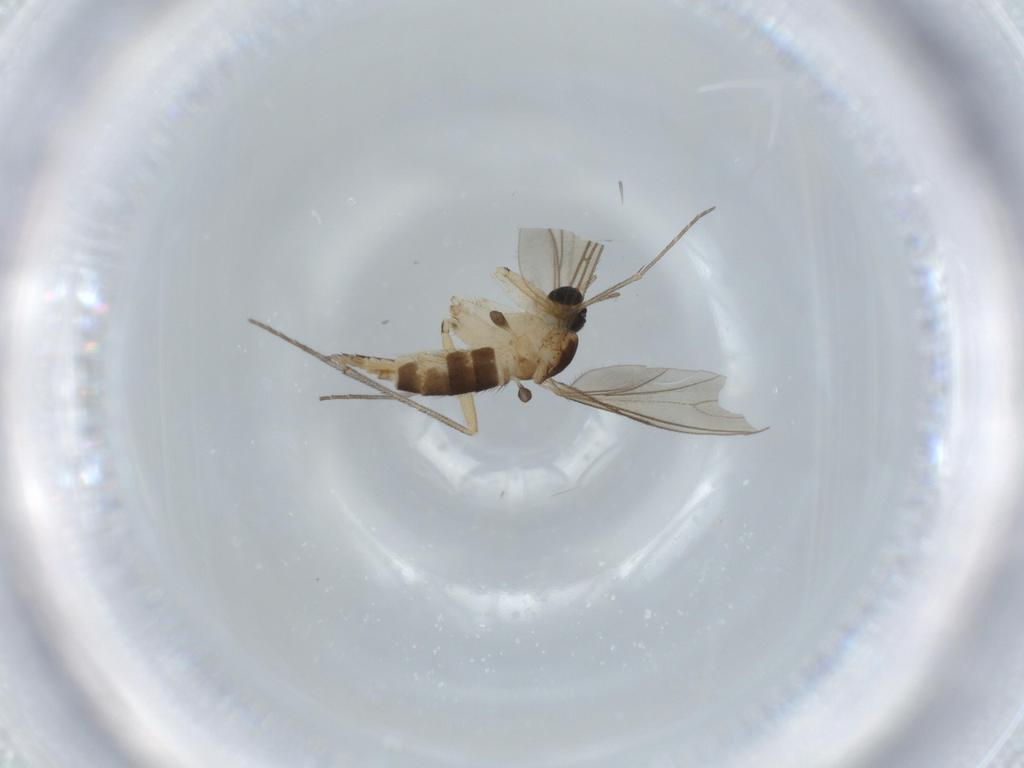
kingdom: Animalia
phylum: Arthropoda
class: Insecta
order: Diptera
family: Sciaridae
